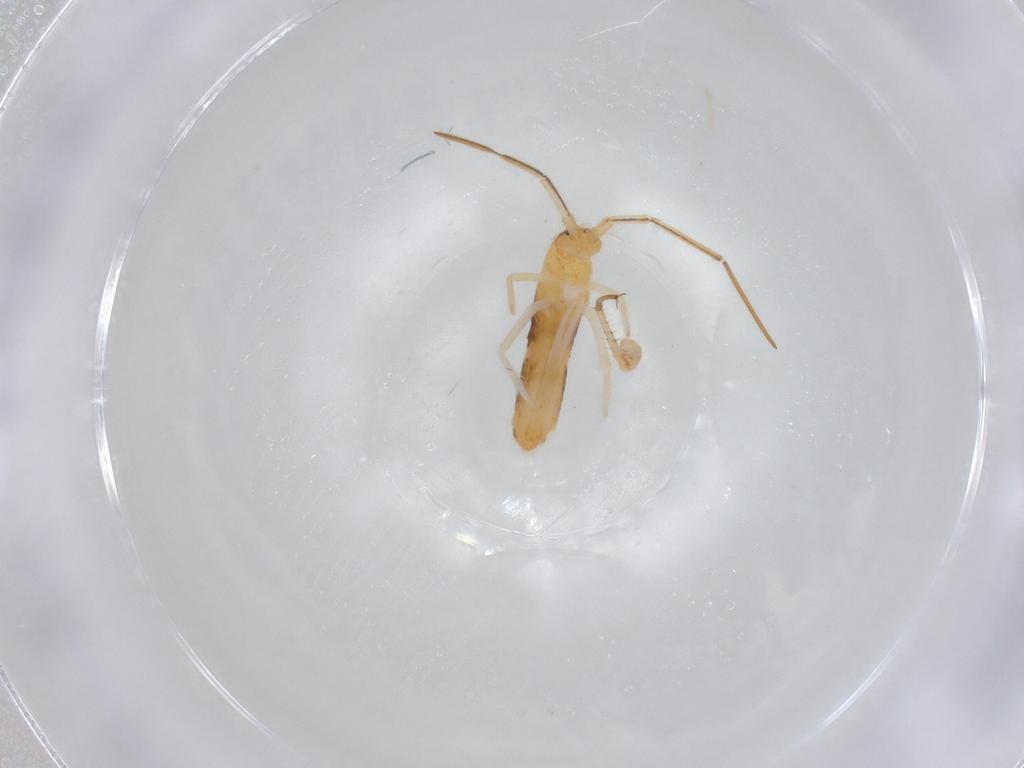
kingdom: Animalia
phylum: Arthropoda
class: Collembola
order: Entomobryomorpha
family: Entomobryidae
